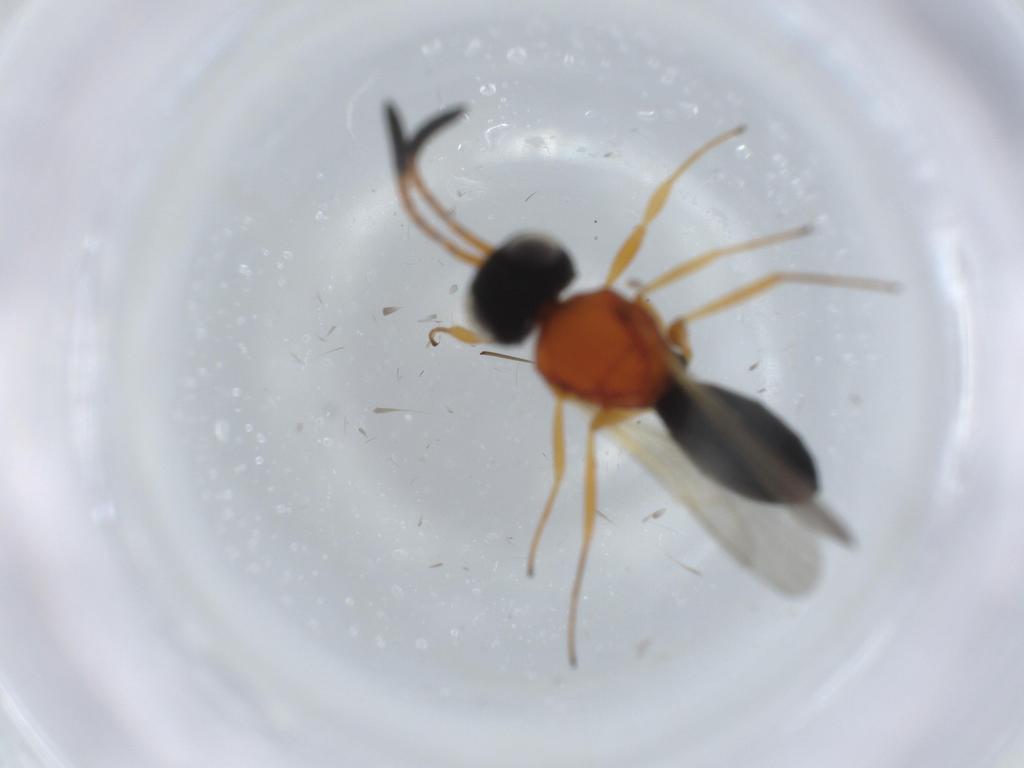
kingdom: Animalia
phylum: Arthropoda
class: Insecta
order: Hymenoptera
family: Scelionidae
